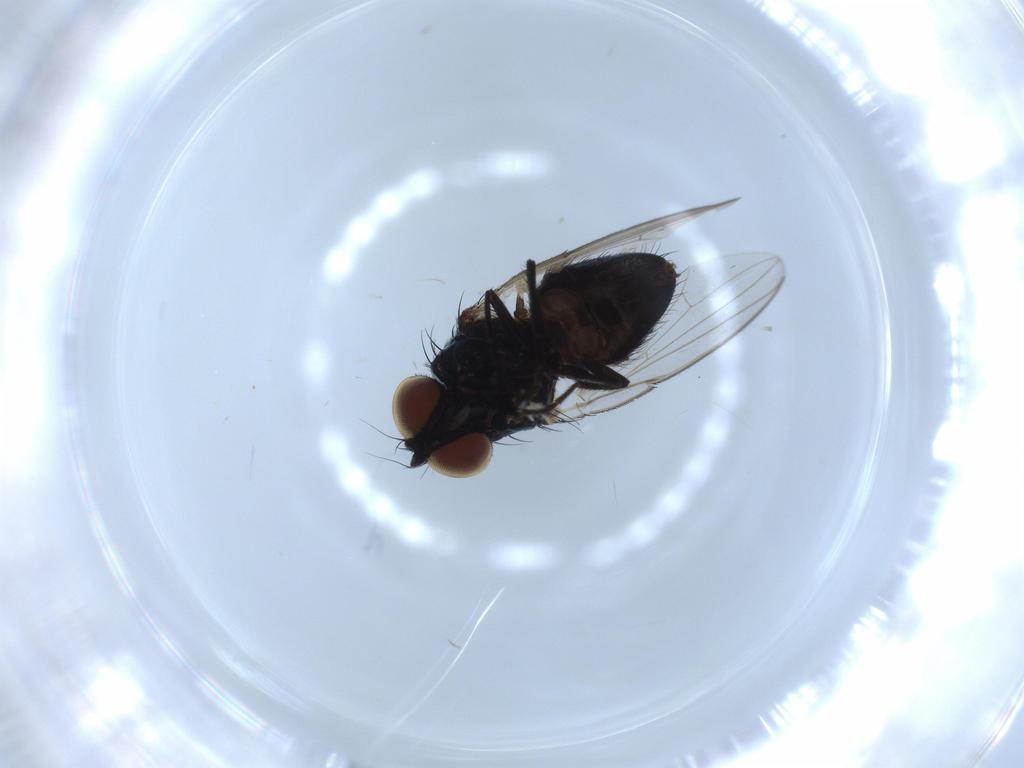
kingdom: Animalia
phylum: Arthropoda
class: Insecta
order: Diptera
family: Milichiidae
